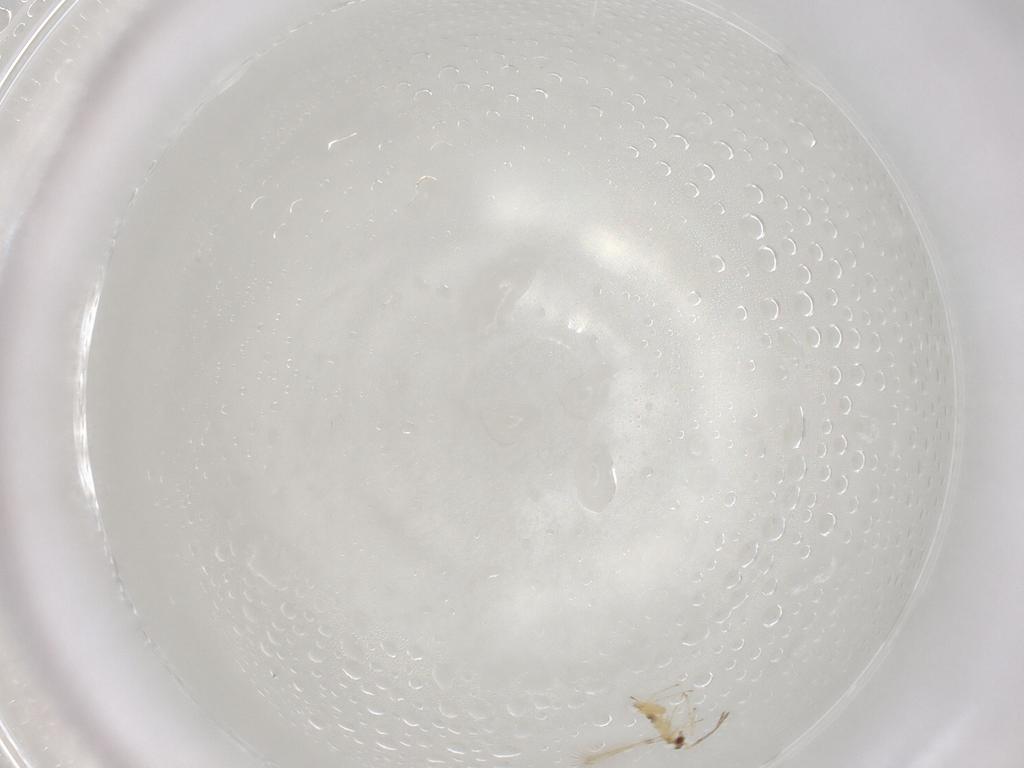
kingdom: Animalia
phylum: Arthropoda
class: Insecta
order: Hymenoptera
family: Mymaridae
